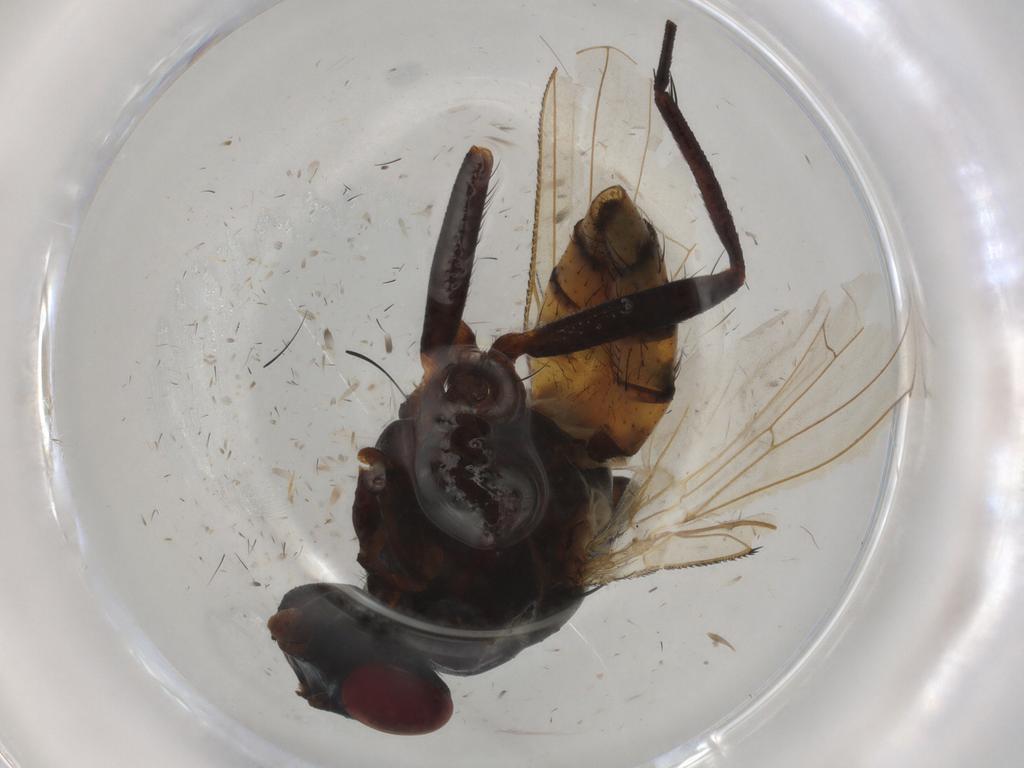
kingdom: Animalia
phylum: Arthropoda
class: Insecta
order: Diptera
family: Anthomyiidae
